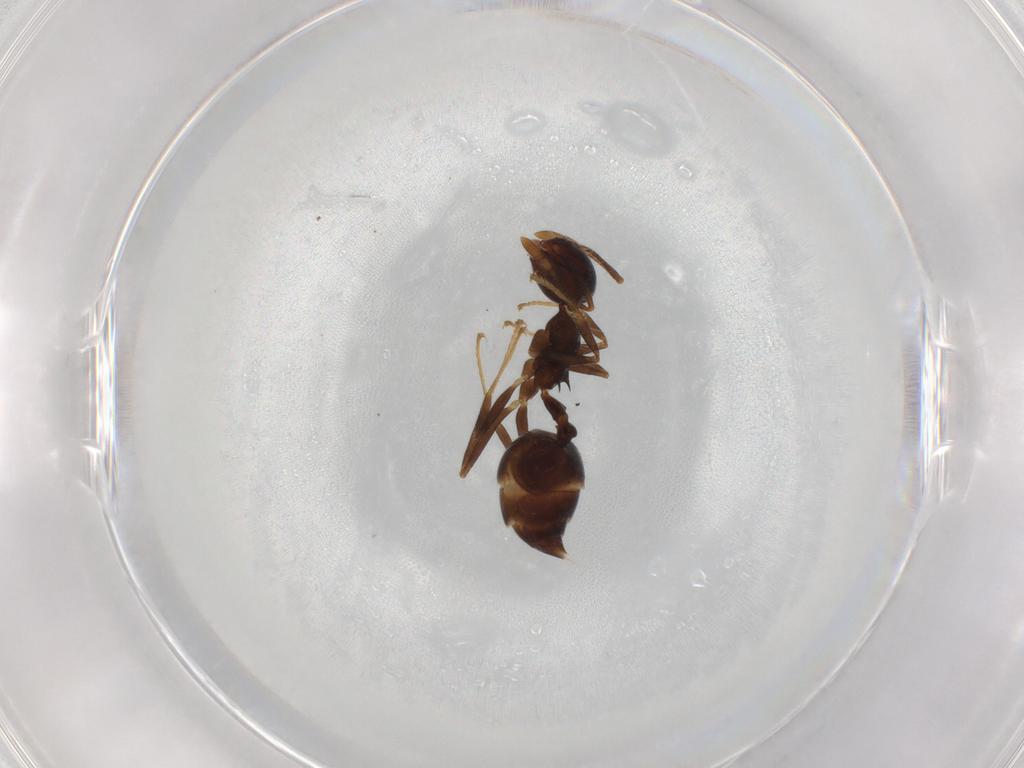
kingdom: Animalia
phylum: Arthropoda
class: Insecta
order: Hymenoptera
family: Formicidae
